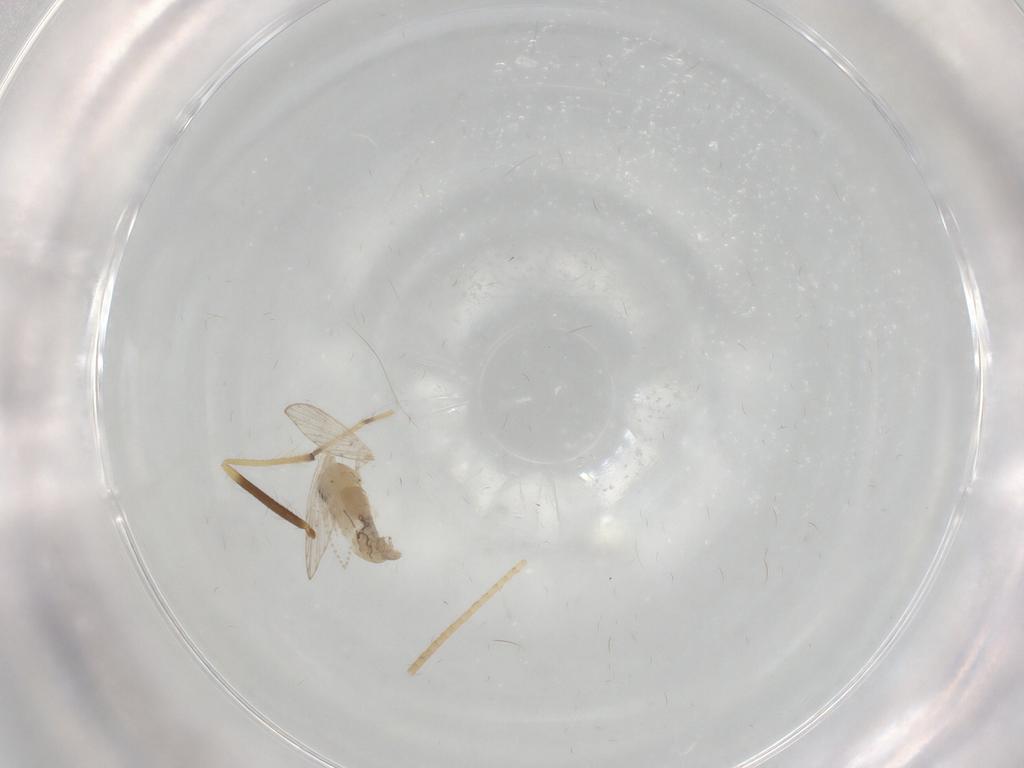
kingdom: Animalia
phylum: Arthropoda
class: Insecta
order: Diptera
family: Psychodidae
